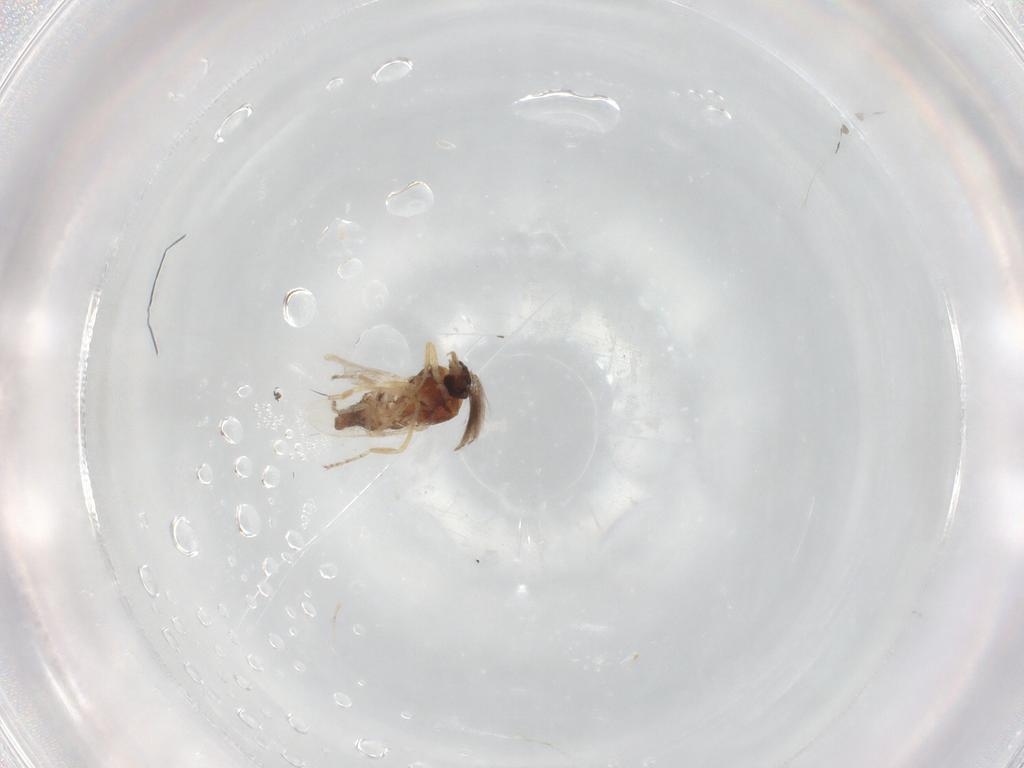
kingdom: Animalia
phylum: Arthropoda
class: Insecta
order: Diptera
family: Ceratopogonidae
